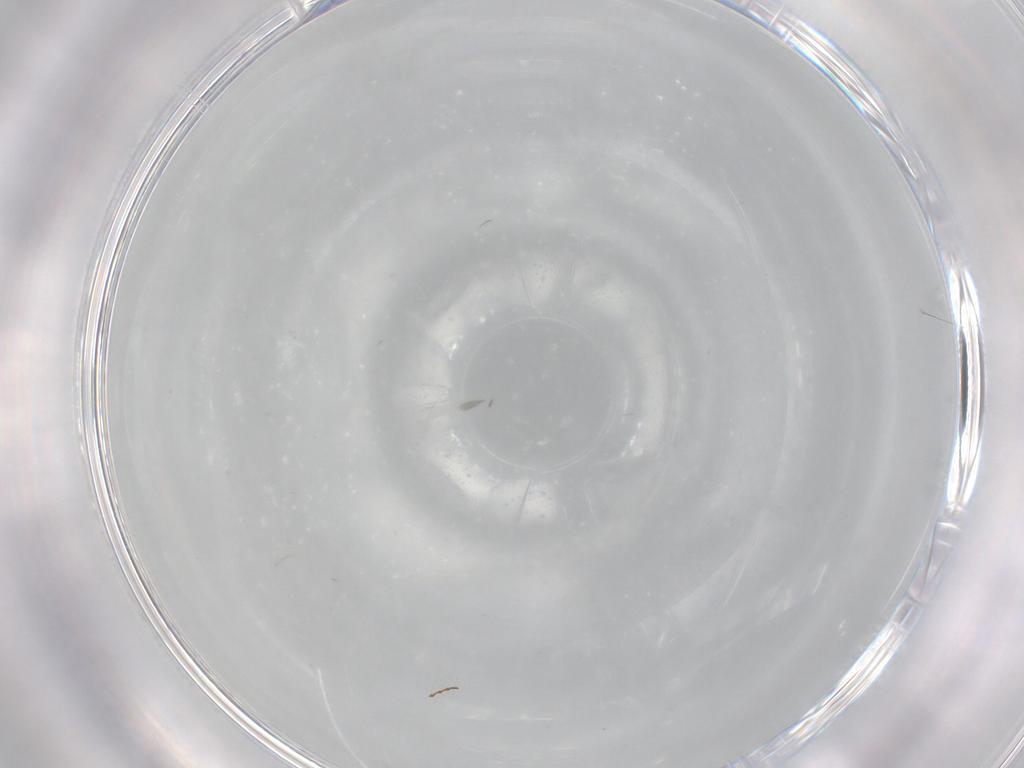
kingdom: Animalia
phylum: Arthropoda
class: Insecta
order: Diptera
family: Cecidomyiidae
